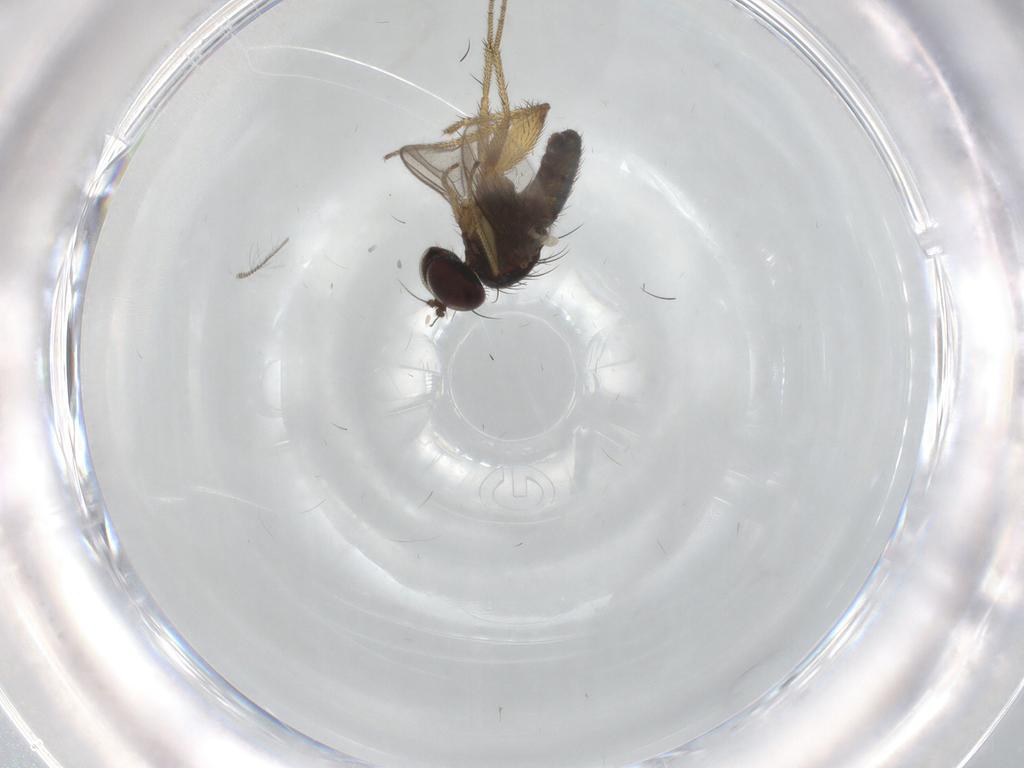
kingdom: Animalia
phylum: Arthropoda
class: Insecta
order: Diptera
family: Dolichopodidae
